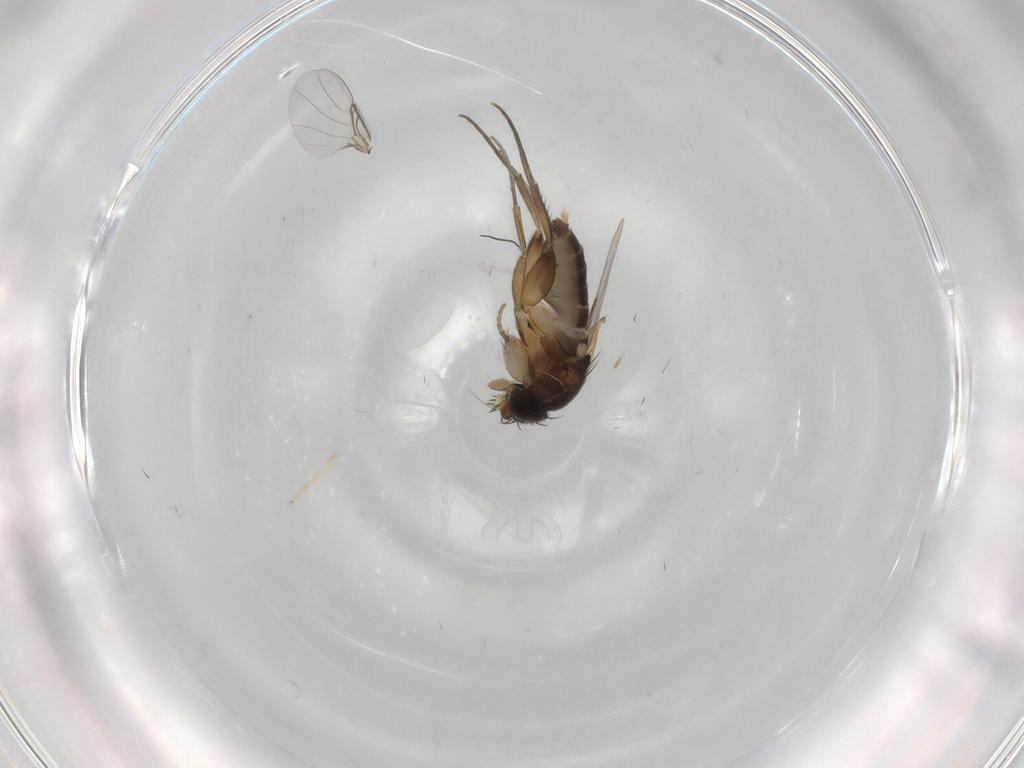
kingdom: Animalia
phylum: Arthropoda
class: Insecta
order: Diptera
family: Phoridae
